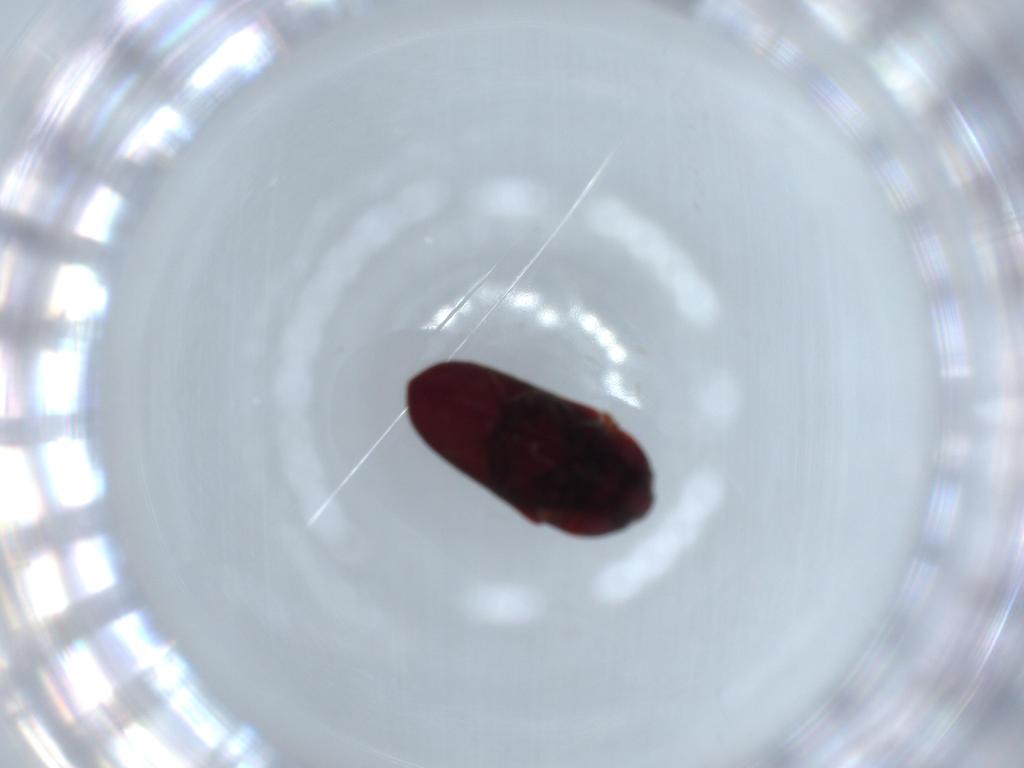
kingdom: Animalia
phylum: Arthropoda
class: Insecta
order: Coleoptera
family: Throscidae
